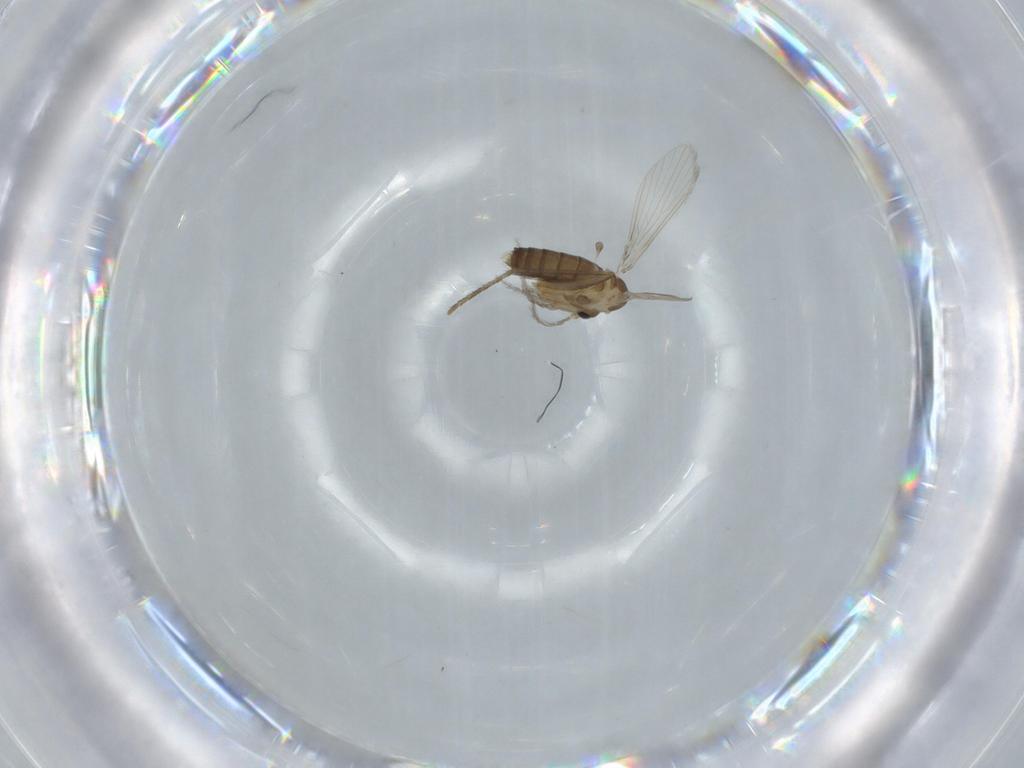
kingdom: Animalia
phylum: Arthropoda
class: Insecta
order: Diptera
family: Psychodidae
